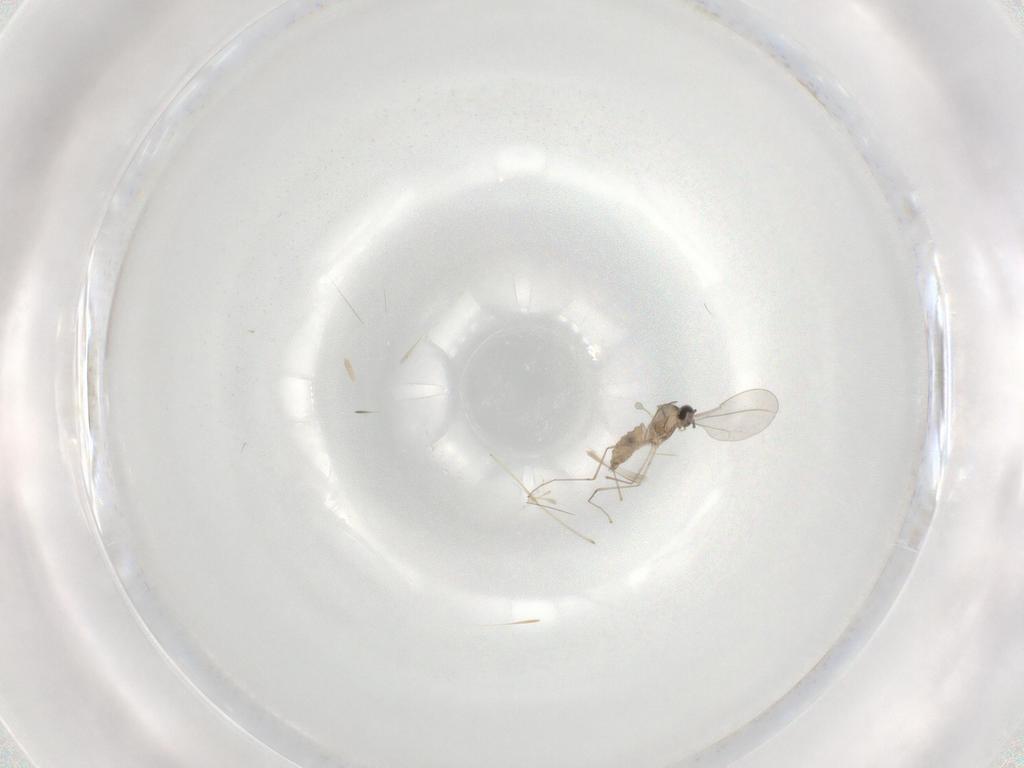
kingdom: Animalia
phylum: Arthropoda
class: Insecta
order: Diptera
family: Cecidomyiidae
